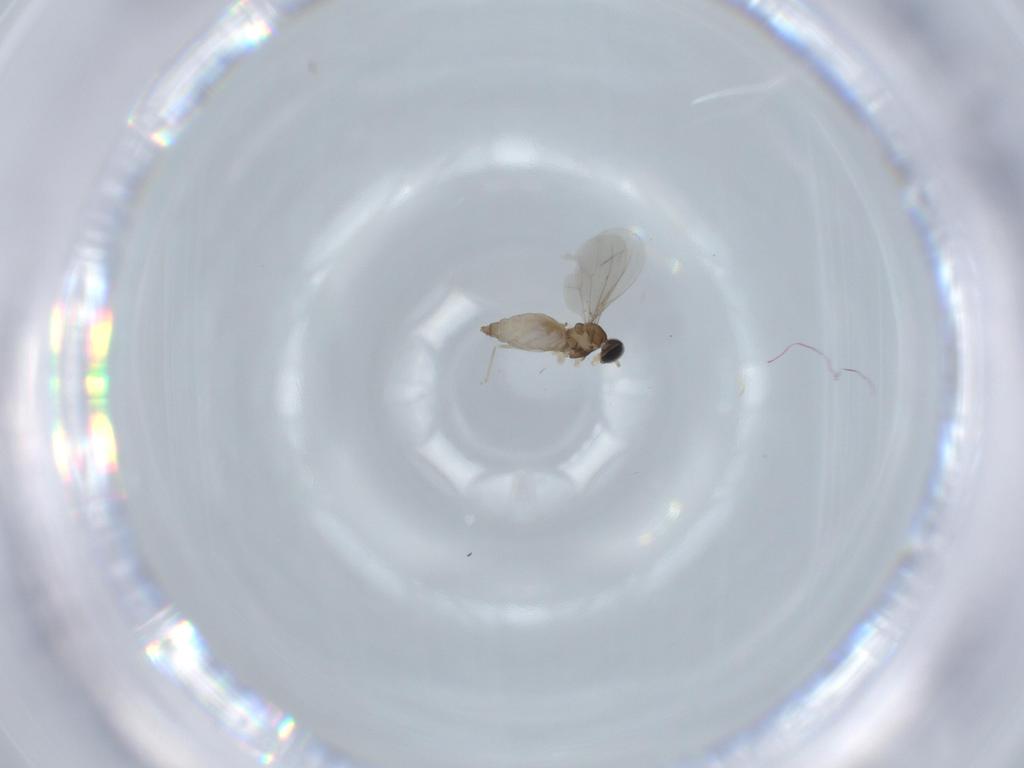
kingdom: Animalia
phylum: Arthropoda
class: Insecta
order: Diptera
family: Cecidomyiidae
